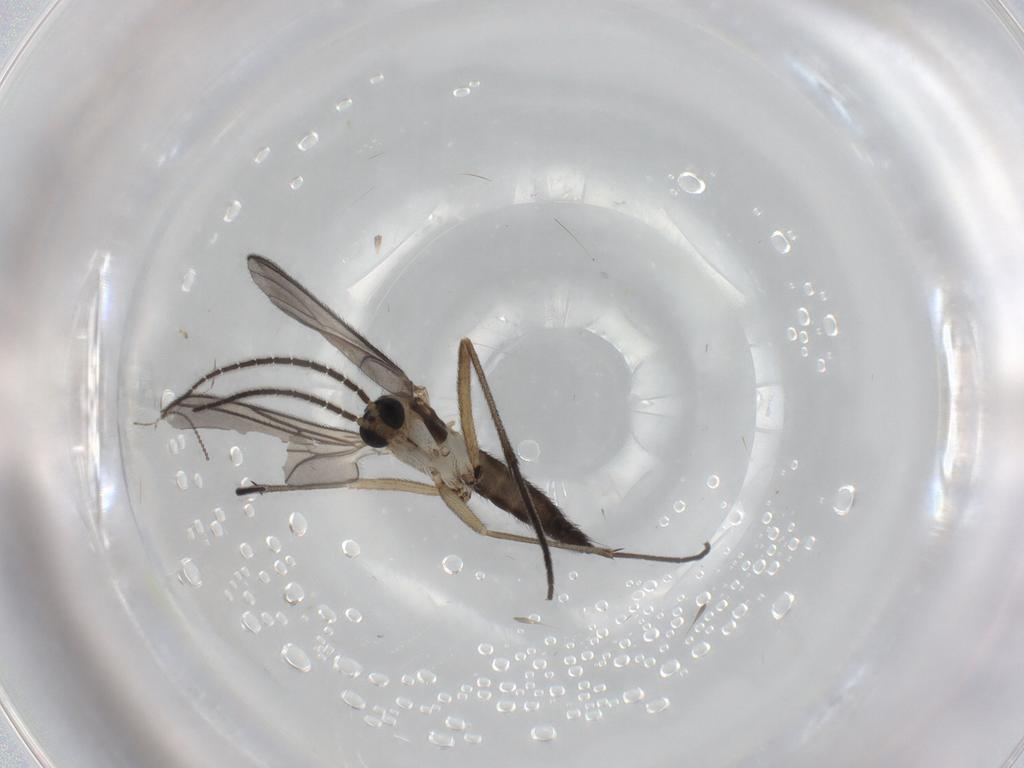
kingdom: Animalia
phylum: Arthropoda
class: Insecta
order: Diptera
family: Sciaridae
